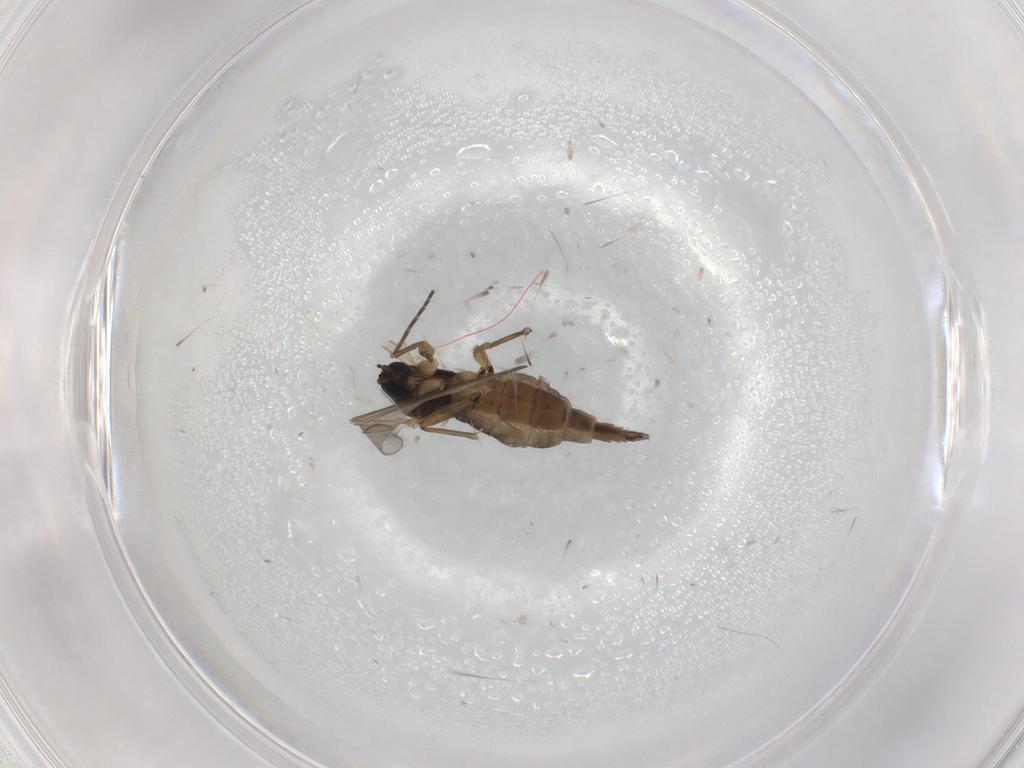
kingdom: Animalia
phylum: Arthropoda
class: Insecta
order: Diptera
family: Sciaridae
